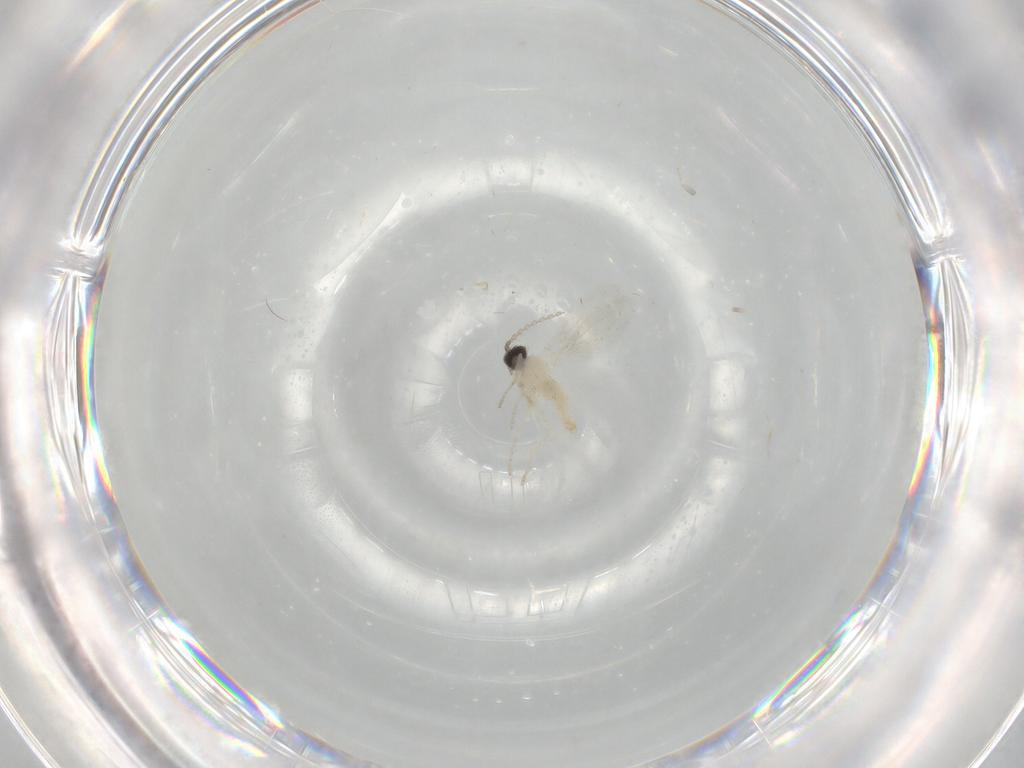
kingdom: Animalia
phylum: Arthropoda
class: Insecta
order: Diptera
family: Cecidomyiidae
